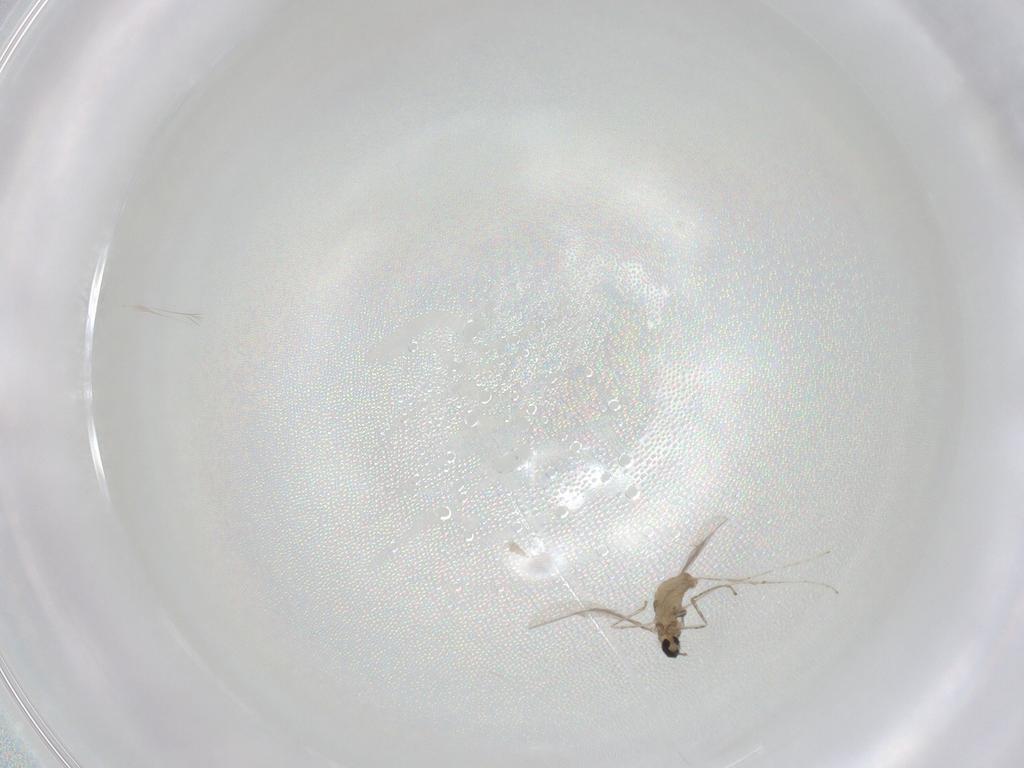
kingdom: Animalia
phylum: Arthropoda
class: Insecta
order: Diptera
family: Cecidomyiidae
